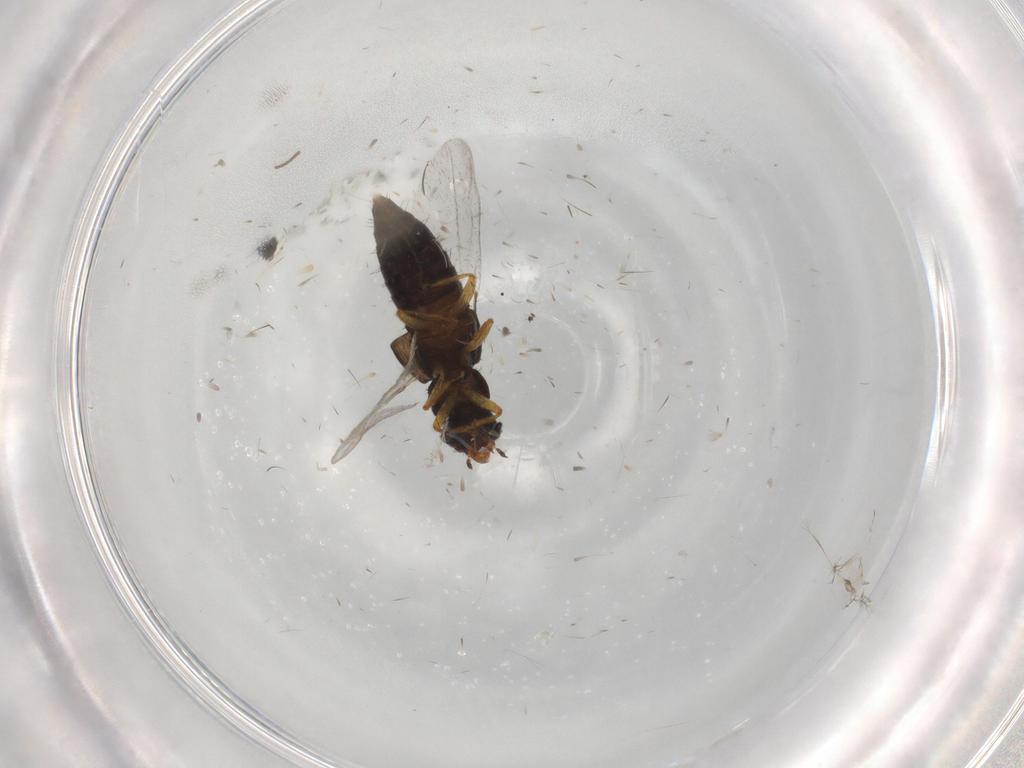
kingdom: Animalia
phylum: Arthropoda
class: Insecta
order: Coleoptera
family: Staphylinidae
